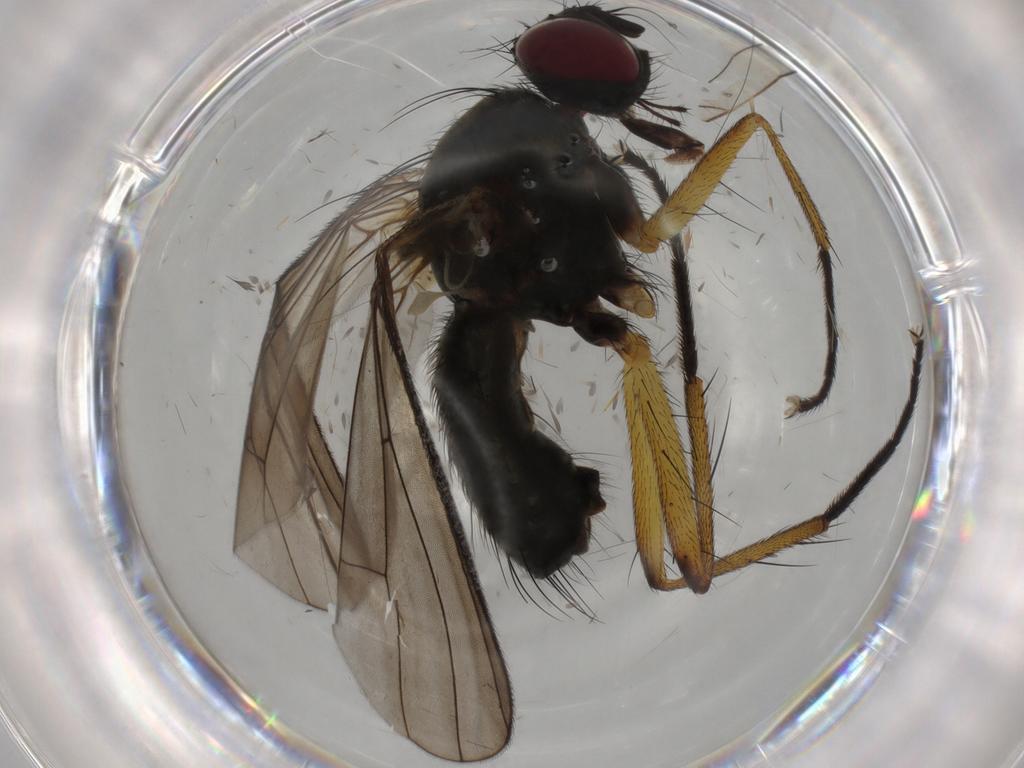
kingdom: Animalia
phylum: Arthropoda
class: Insecta
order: Diptera
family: Muscidae
